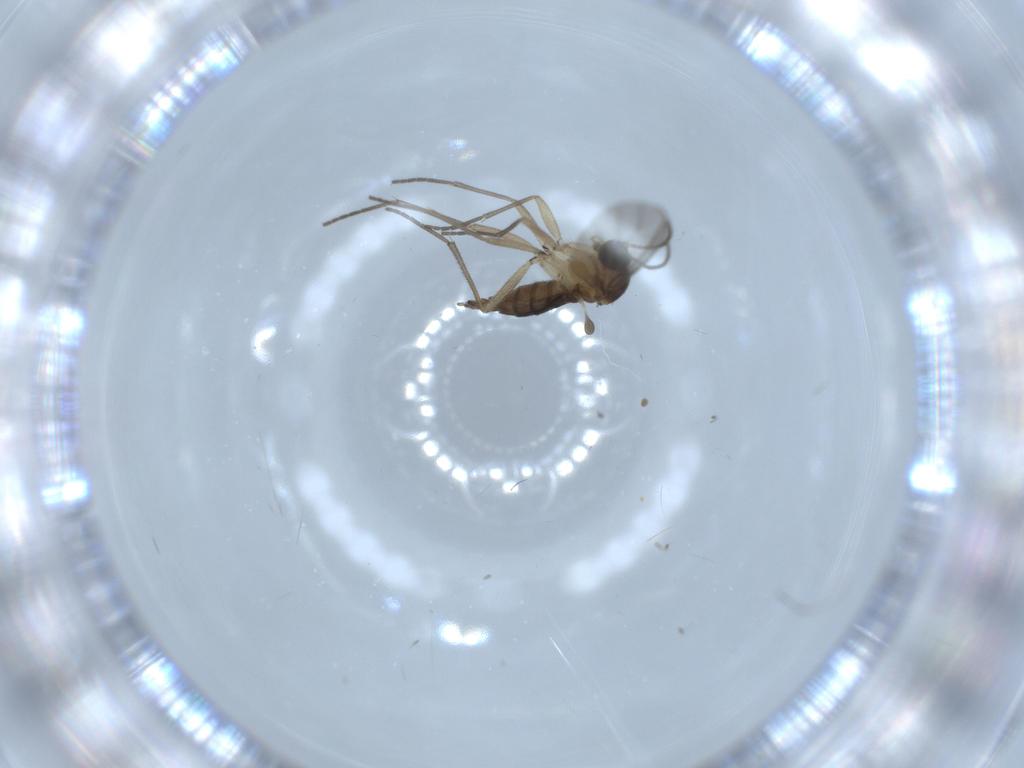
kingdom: Animalia
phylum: Arthropoda
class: Insecta
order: Diptera
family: Sciaridae
